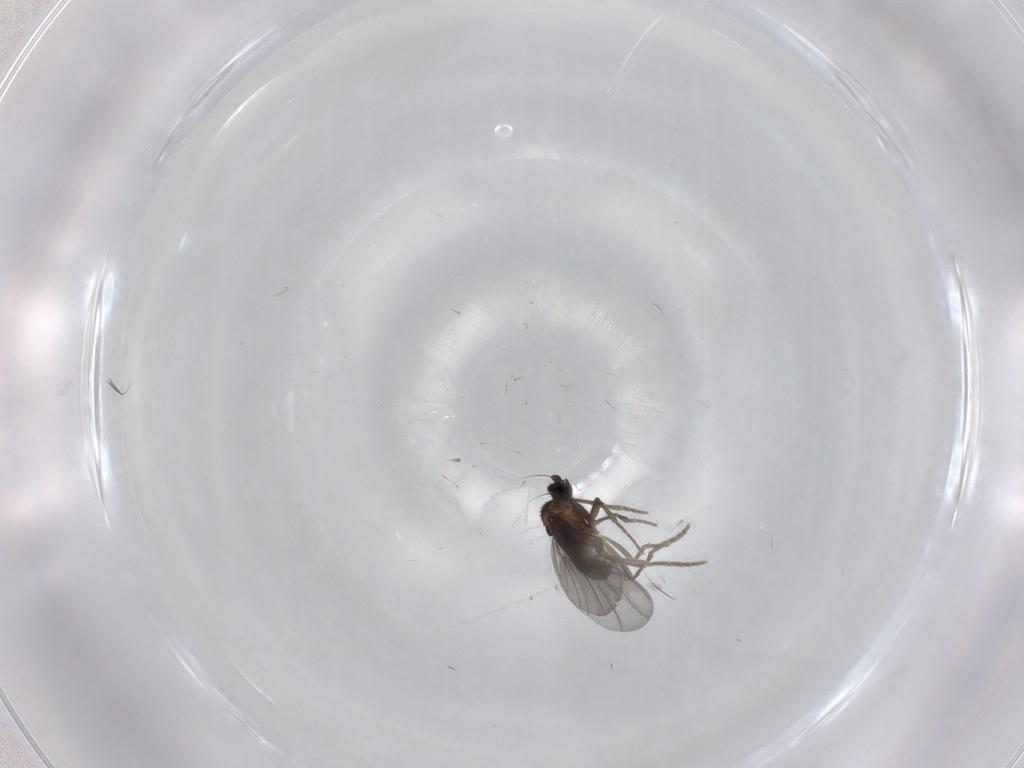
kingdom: Animalia
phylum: Arthropoda
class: Insecta
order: Diptera
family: Phoridae
